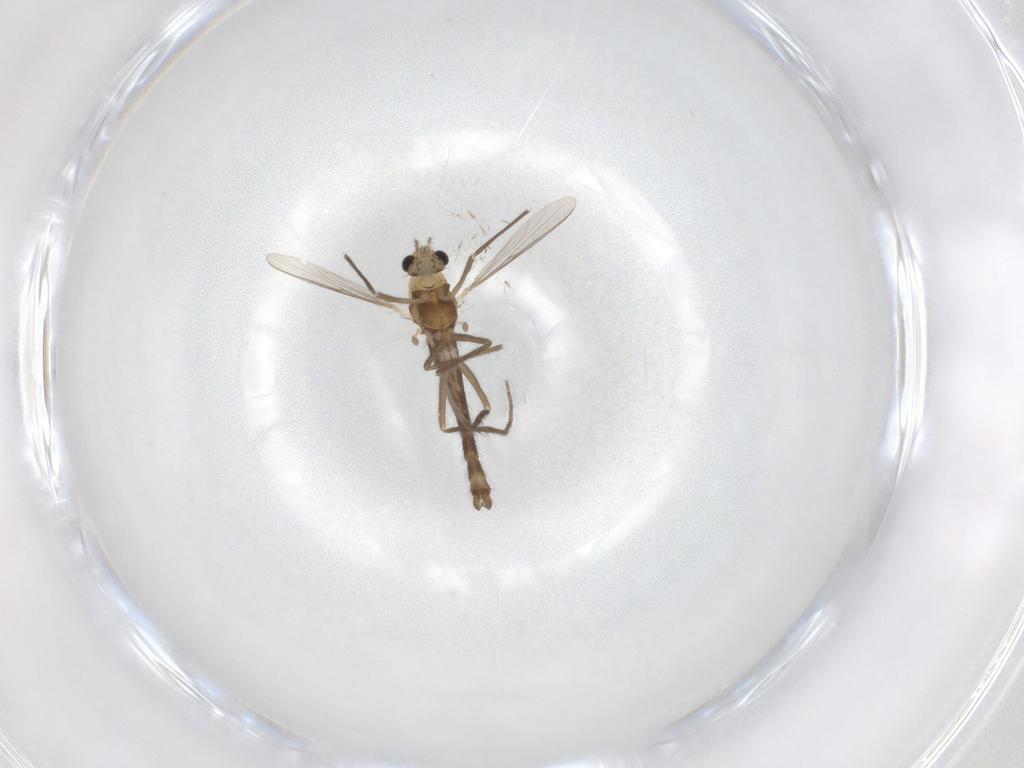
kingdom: Animalia
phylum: Arthropoda
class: Insecta
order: Diptera
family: Chironomidae
